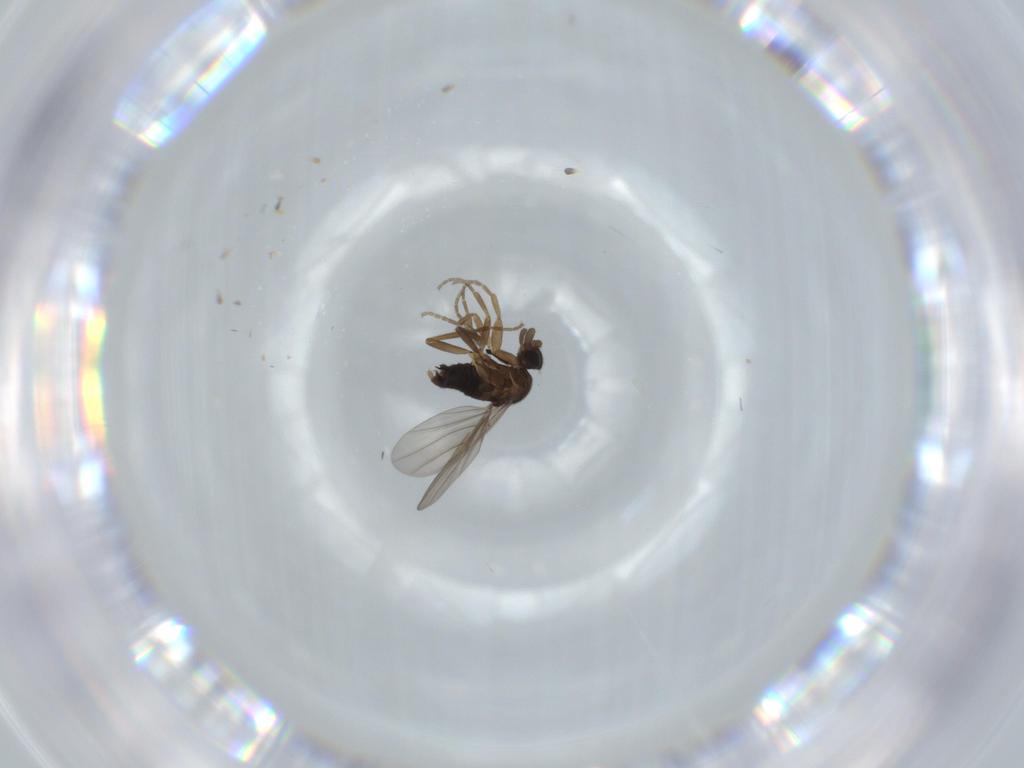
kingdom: Animalia
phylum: Arthropoda
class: Insecta
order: Diptera
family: Phoridae
